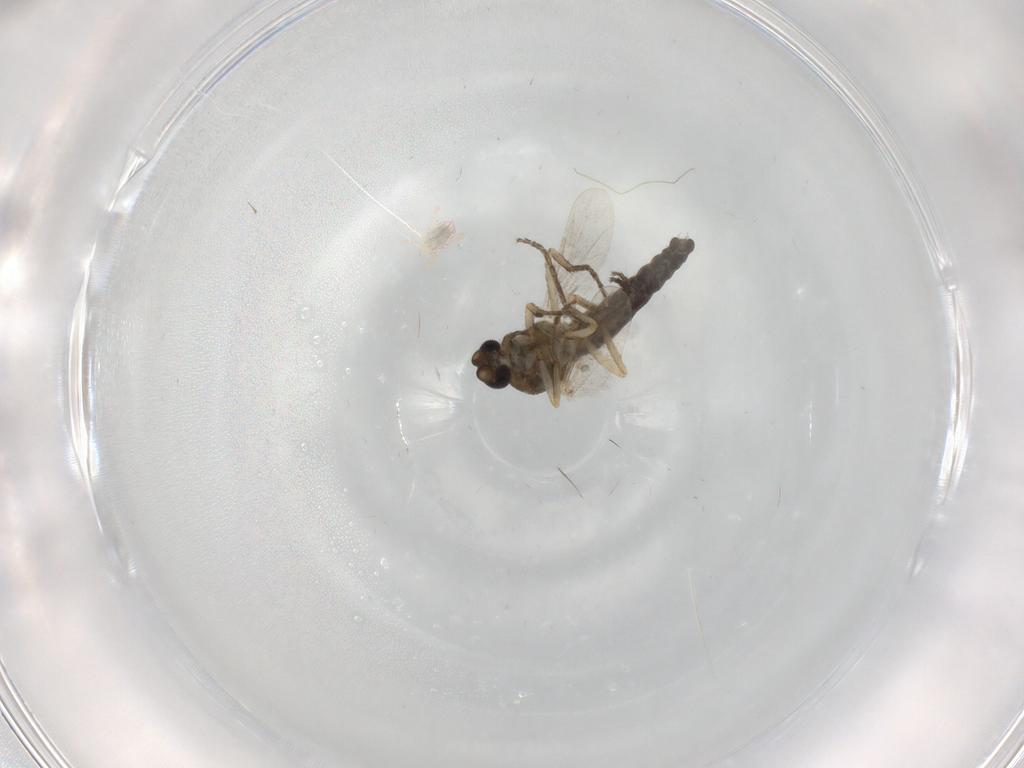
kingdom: Animalia
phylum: Arthropoda
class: Insecta
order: Diptera
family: Ceratopogonidae
